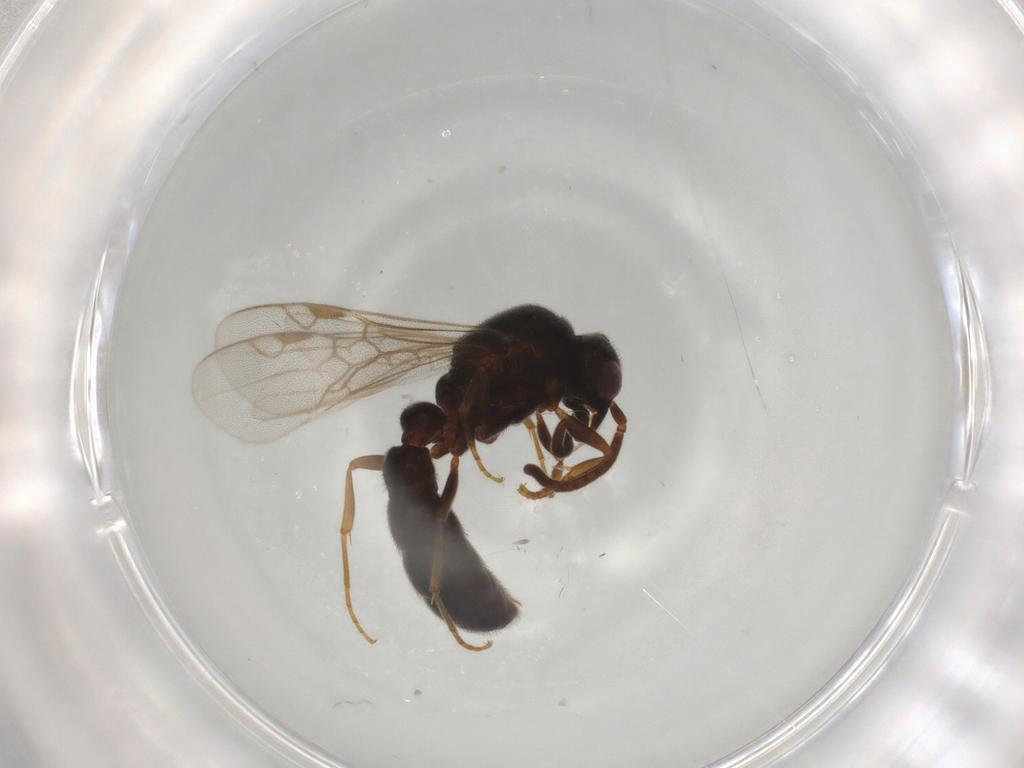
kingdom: Animalia
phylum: Arthropoda
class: Insecta
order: Hymenoptera
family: Formicidae
